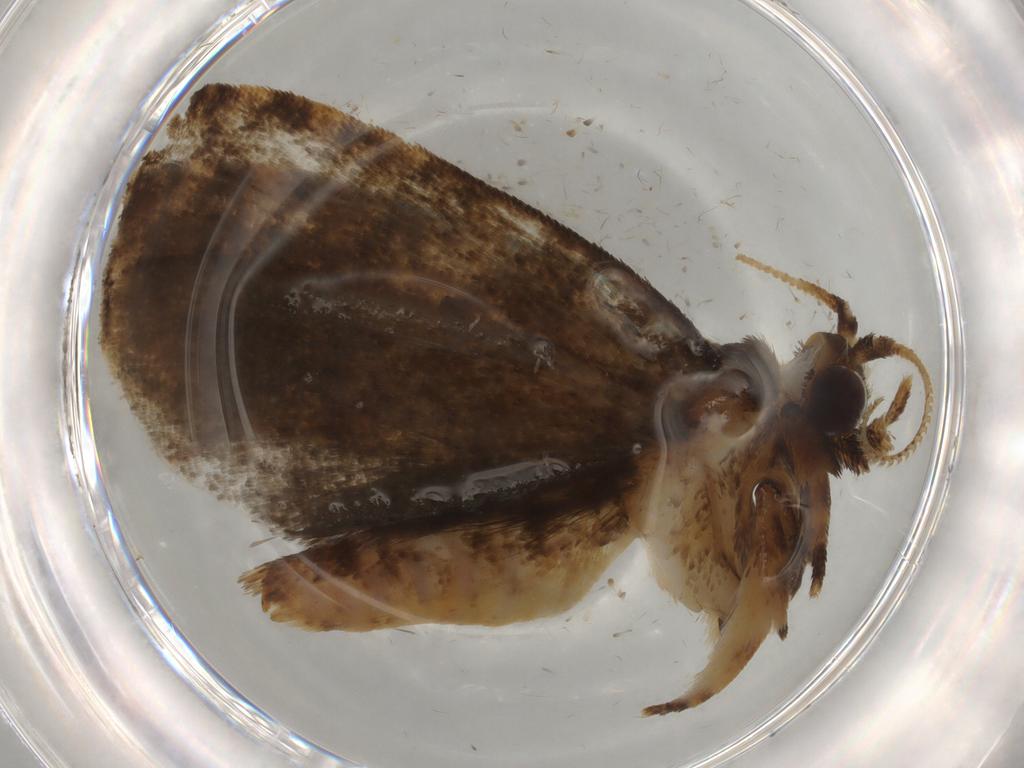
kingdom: Animalia
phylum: Arthropoda
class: Insecta
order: Lepidoptera
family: Tineidae
